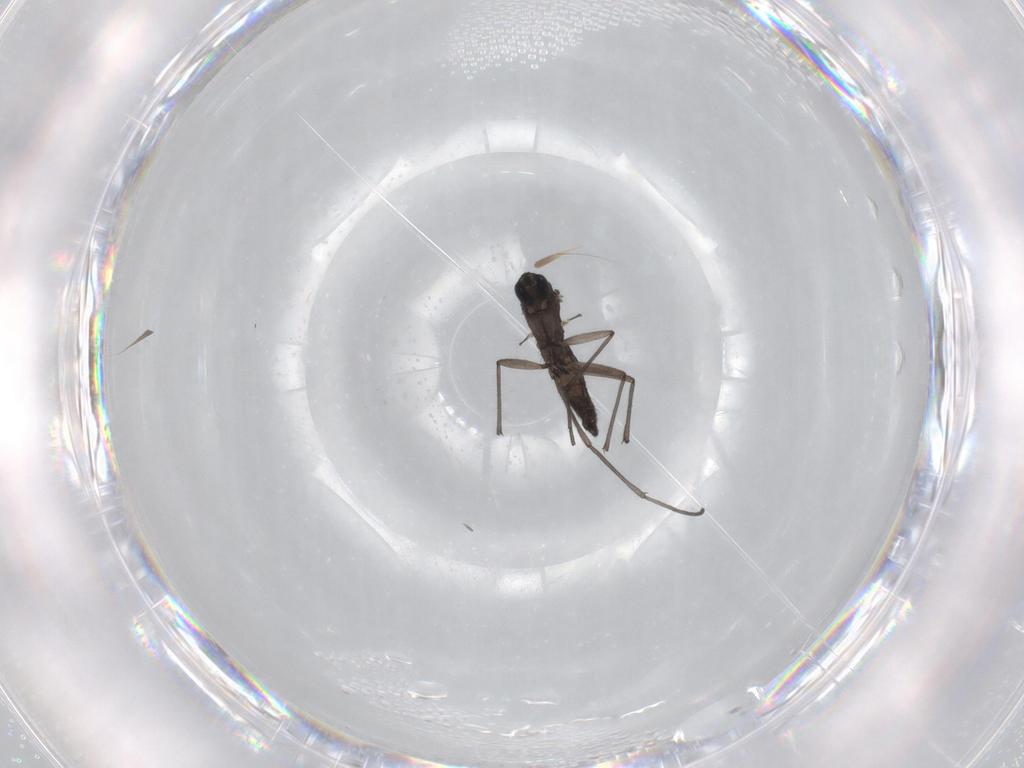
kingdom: Animalia
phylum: Arthropoda
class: Insecta
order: Diptera
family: Sciaridae
